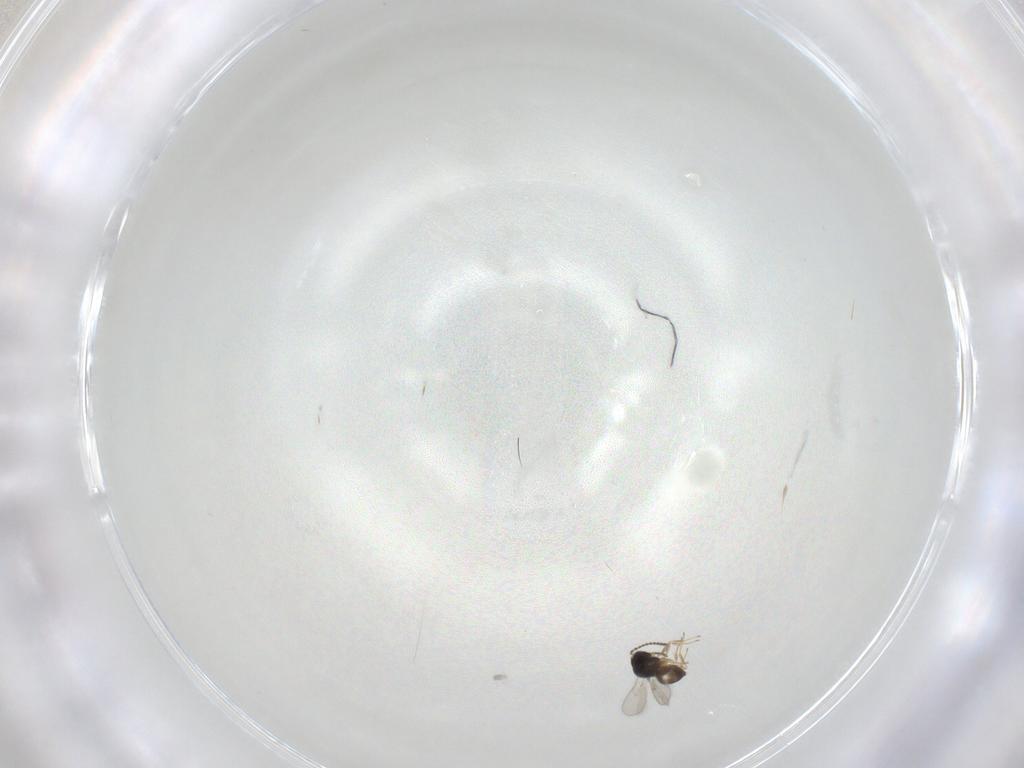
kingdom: Animalia
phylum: Arthropoda
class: Insecta
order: Hymenoptera
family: Scelionidae
